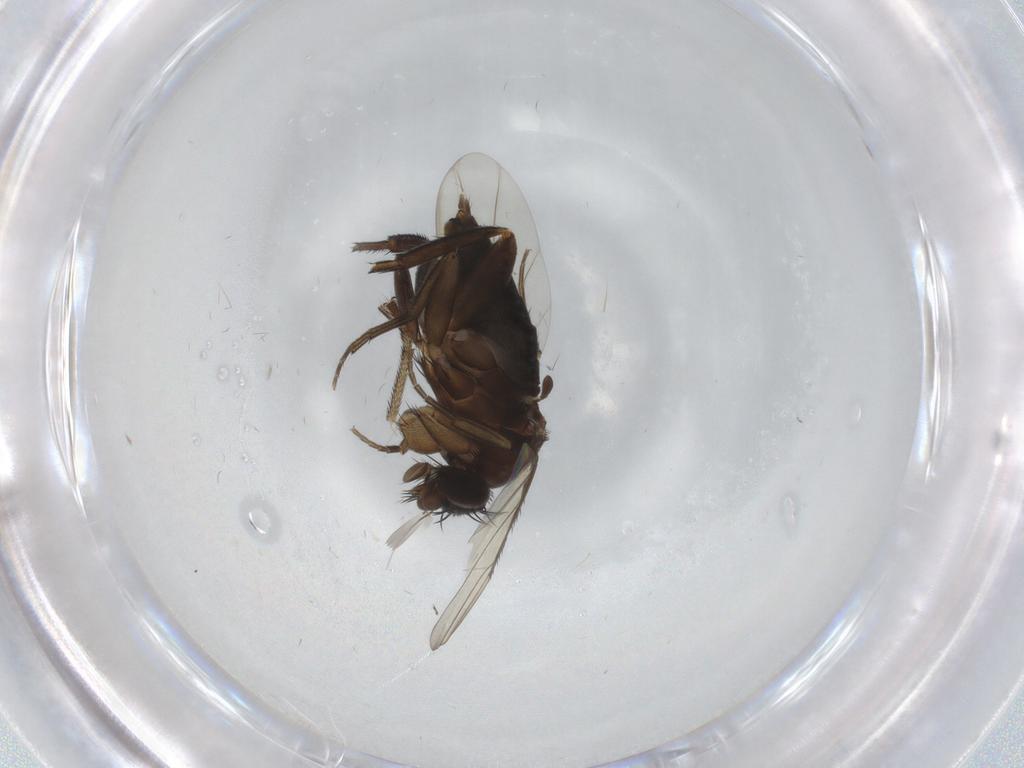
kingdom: Animalia
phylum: Arthropoda
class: Insecta
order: Diptera
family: Phoridae
